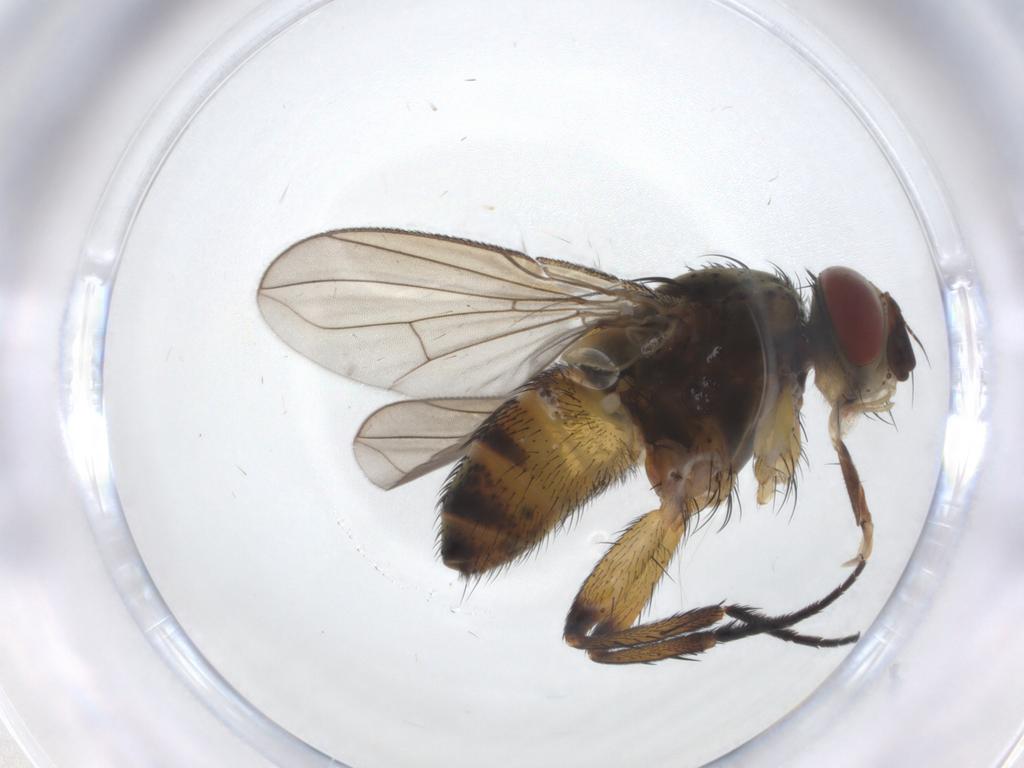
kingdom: Animalia
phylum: Arthropoda
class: Insecta
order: Diptera
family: Tachinidae
